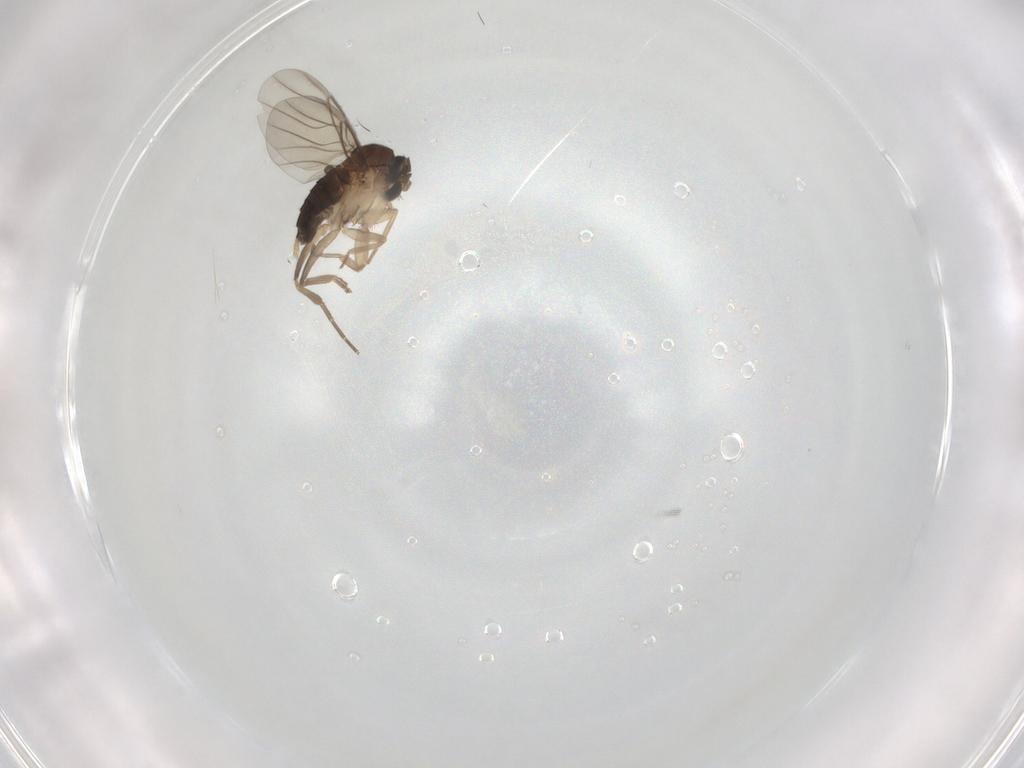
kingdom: Animalia
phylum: Arthropoda
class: Insecta
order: Diptera
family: Phoridae
